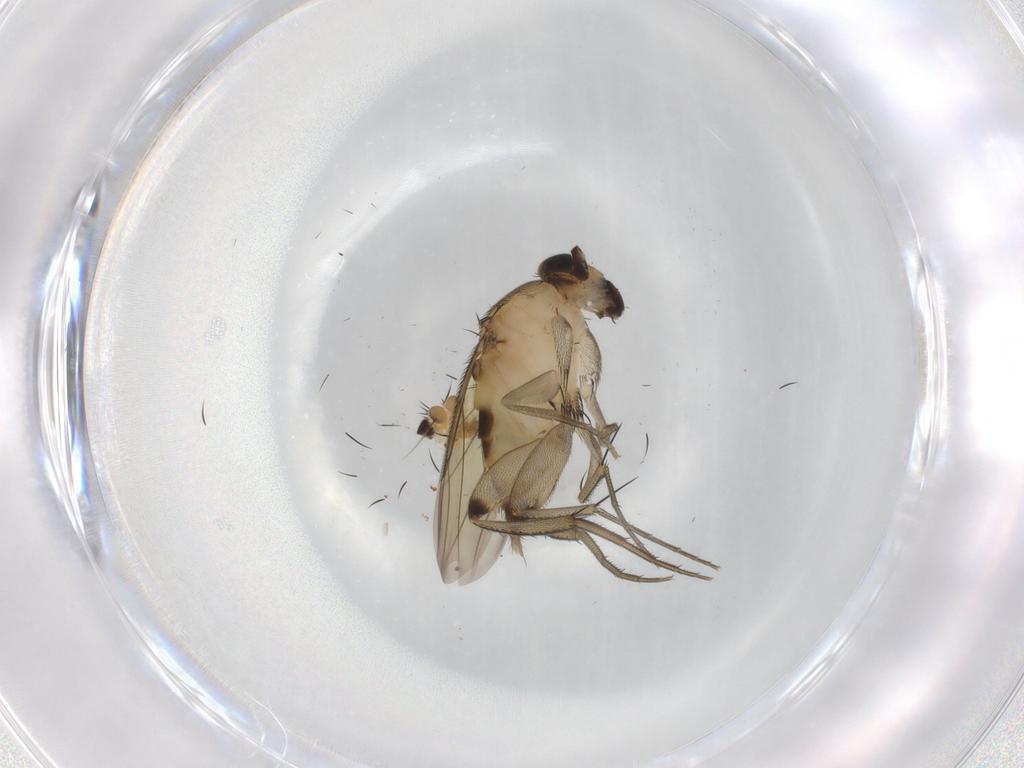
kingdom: Animalia
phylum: Arthropoda
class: Insecta
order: Diptera
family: Phoridae
